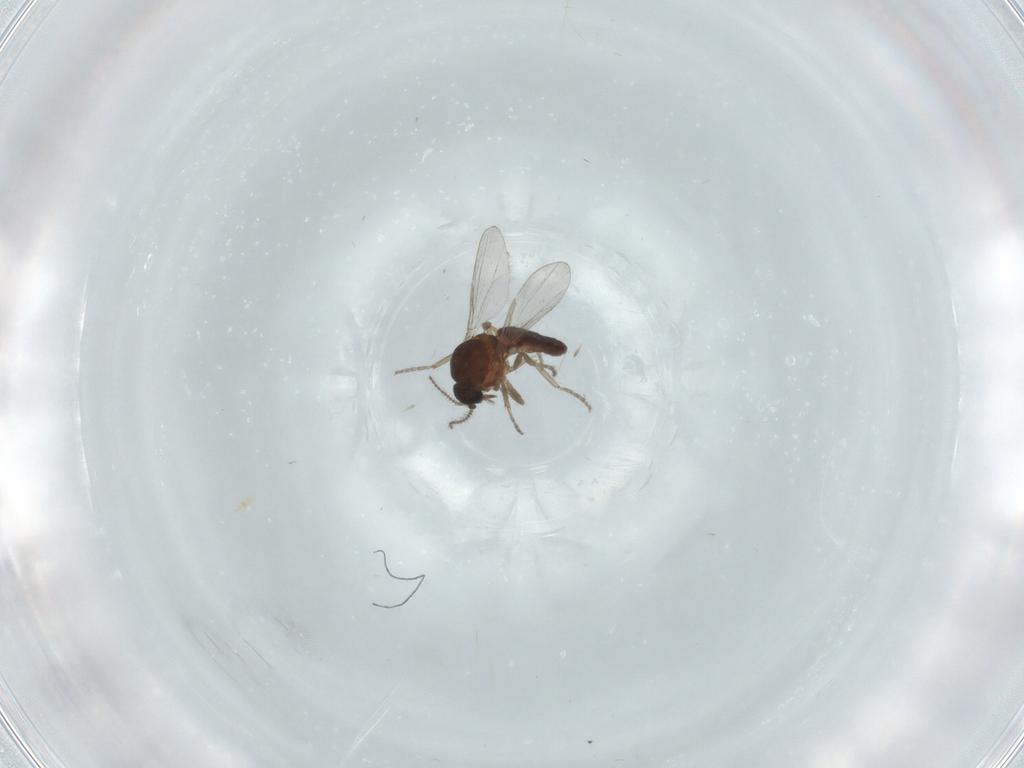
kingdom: Animalia
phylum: Arthropoda
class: Insecta
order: Diptera
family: Ceratopogonidae
